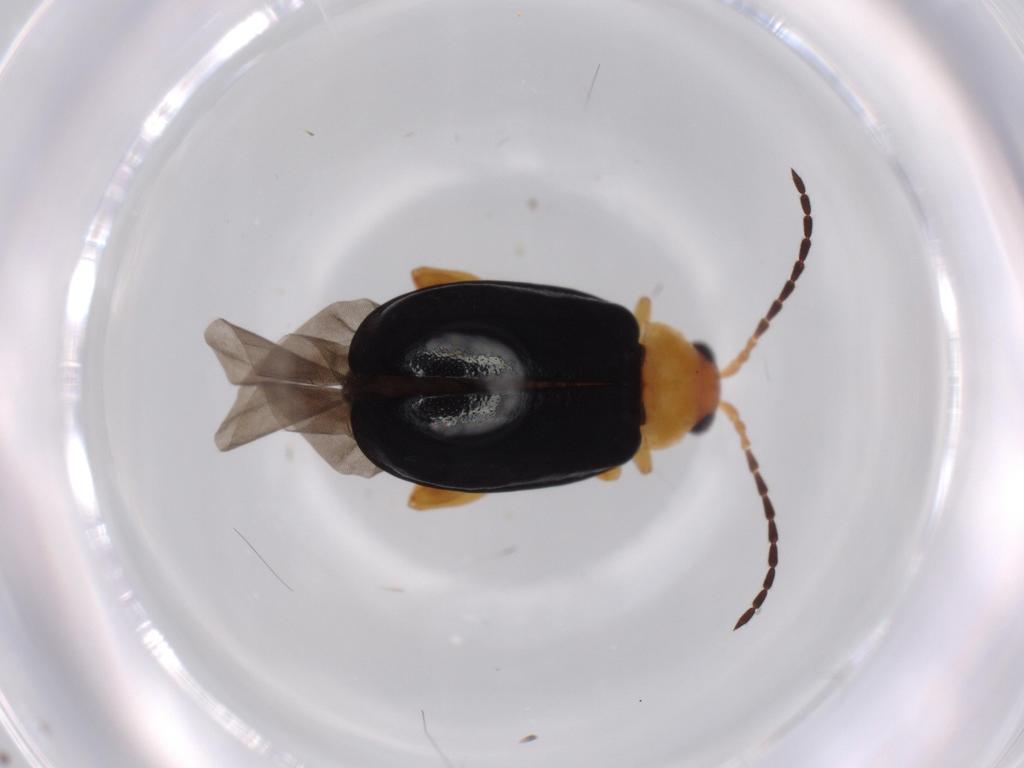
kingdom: Animalia
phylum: Arthropoda
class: Insecta
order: Coleoptera
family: Chrysomelidae
